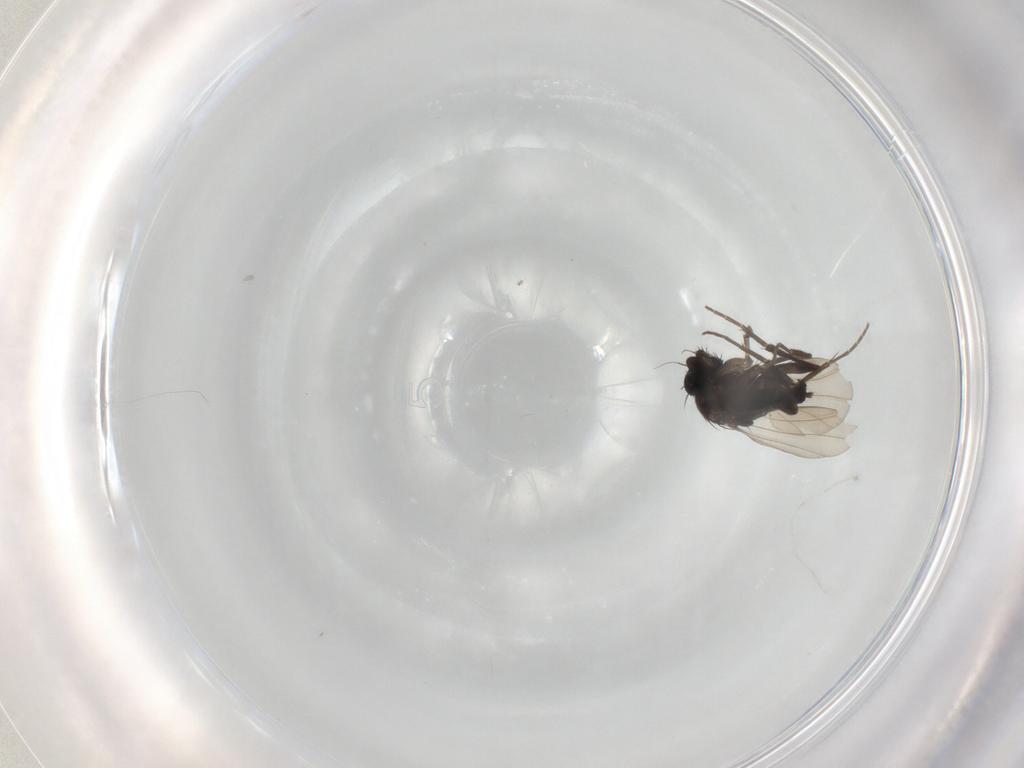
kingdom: Animalia
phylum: Arthropoda
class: Insecta
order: Diptera
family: Phoridae
